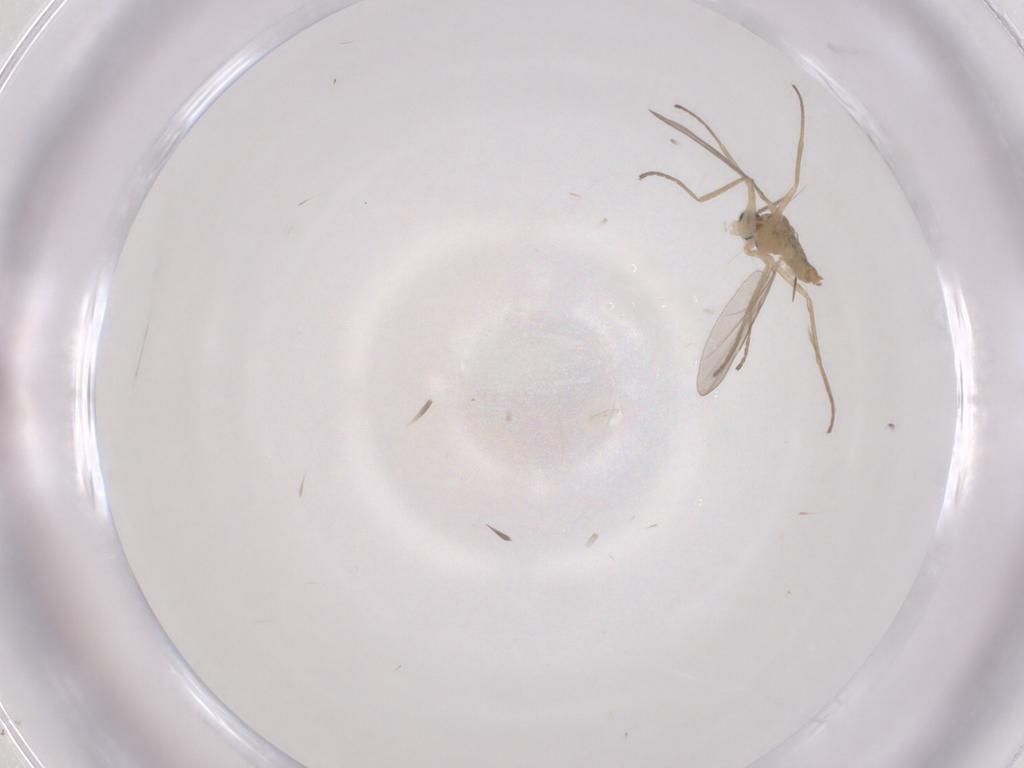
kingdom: Animalia
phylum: Arthropoda
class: Insecta
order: Diptera
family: Cecidomyiidae
